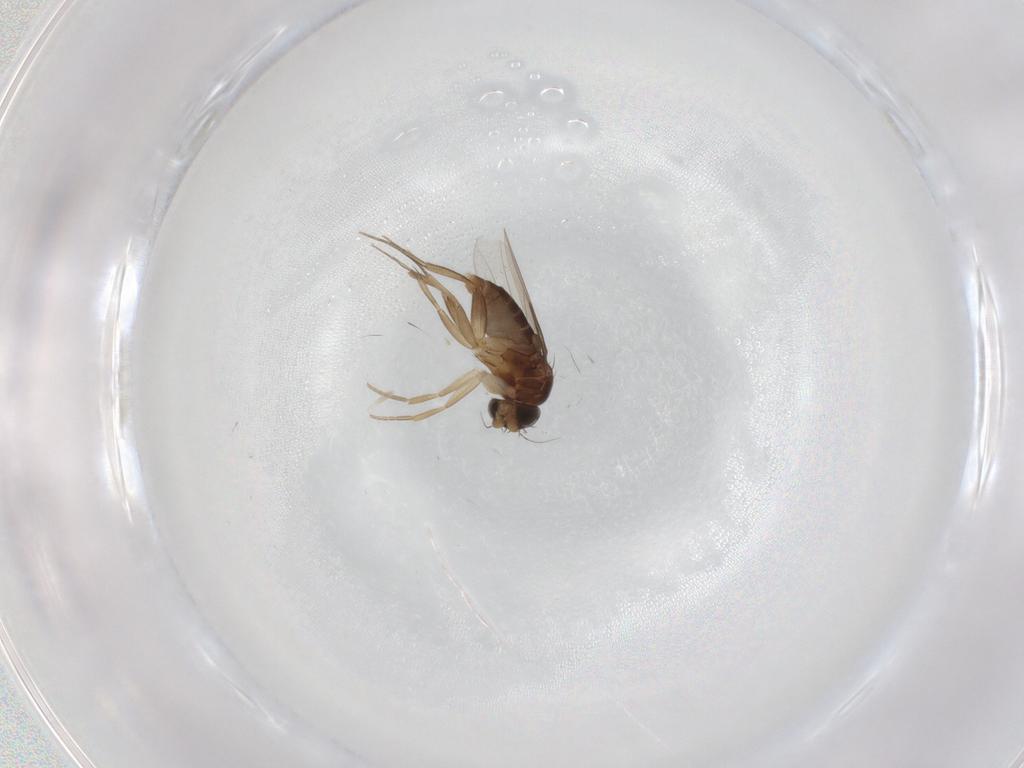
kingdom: Animalia
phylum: Arthropoda
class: Insecta
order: Diptera
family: Phoridae
